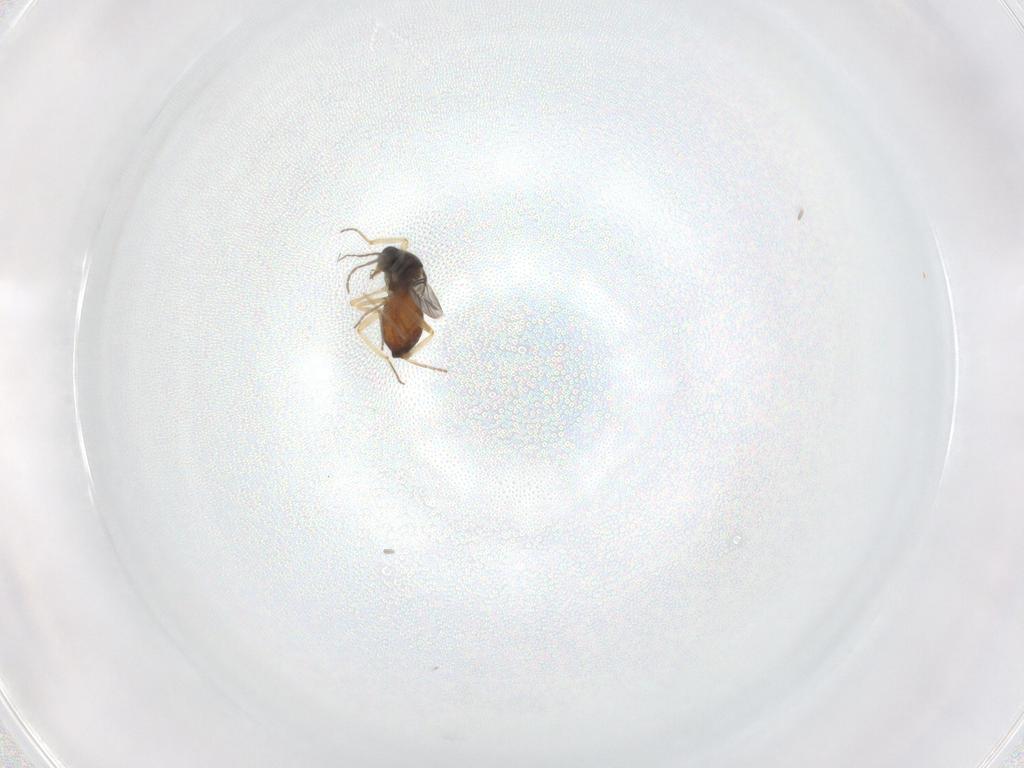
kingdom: Animalia
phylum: Arthropoda
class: Insecta
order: Diptera
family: Ceratopogonidae
